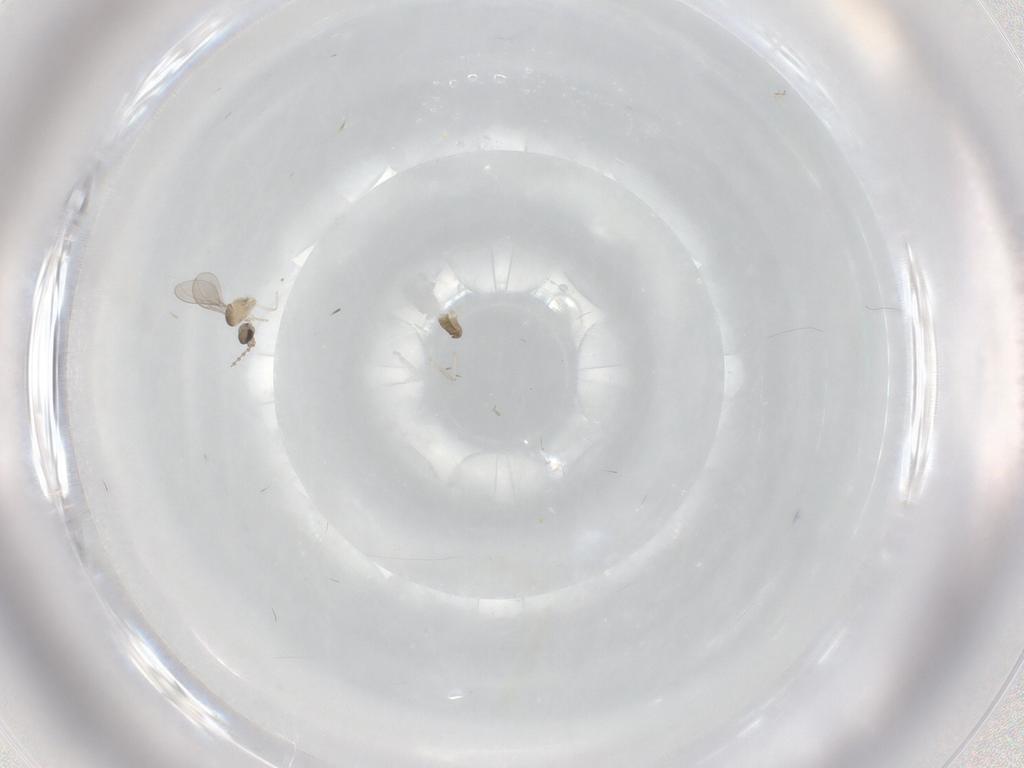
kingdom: Animalia
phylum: Arthropoda
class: Insecta
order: Diptera
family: Cecidomyiidae
